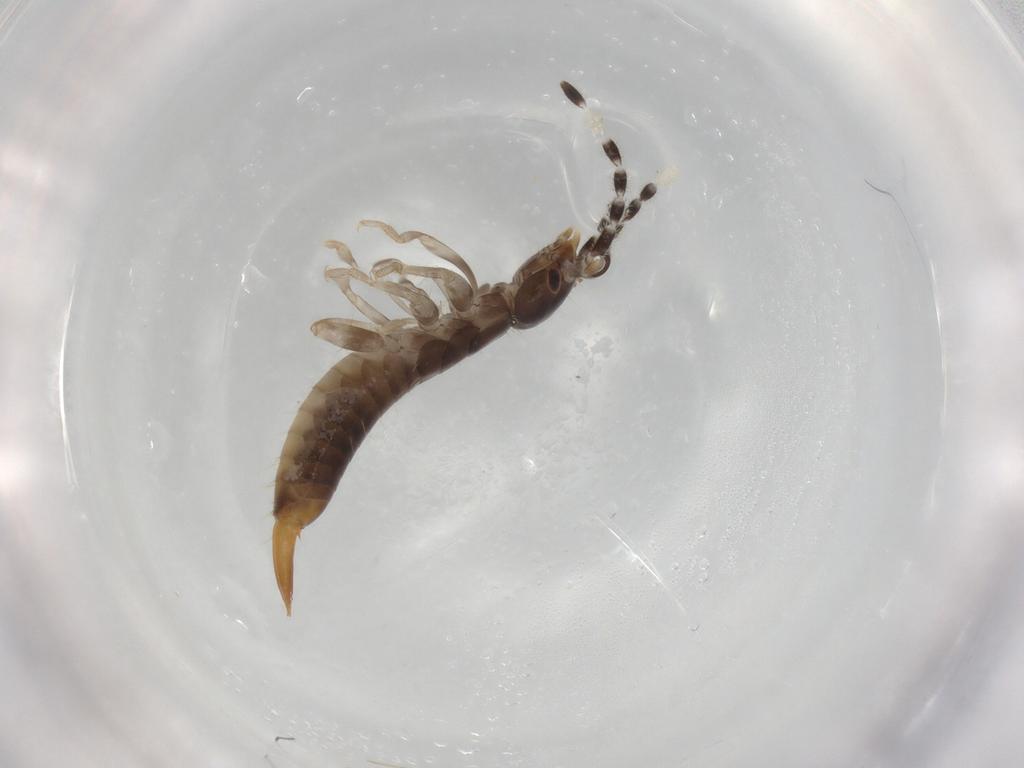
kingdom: Animalia
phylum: Arthropoda
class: Insecta
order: Dermaptera
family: Anisolabididae
